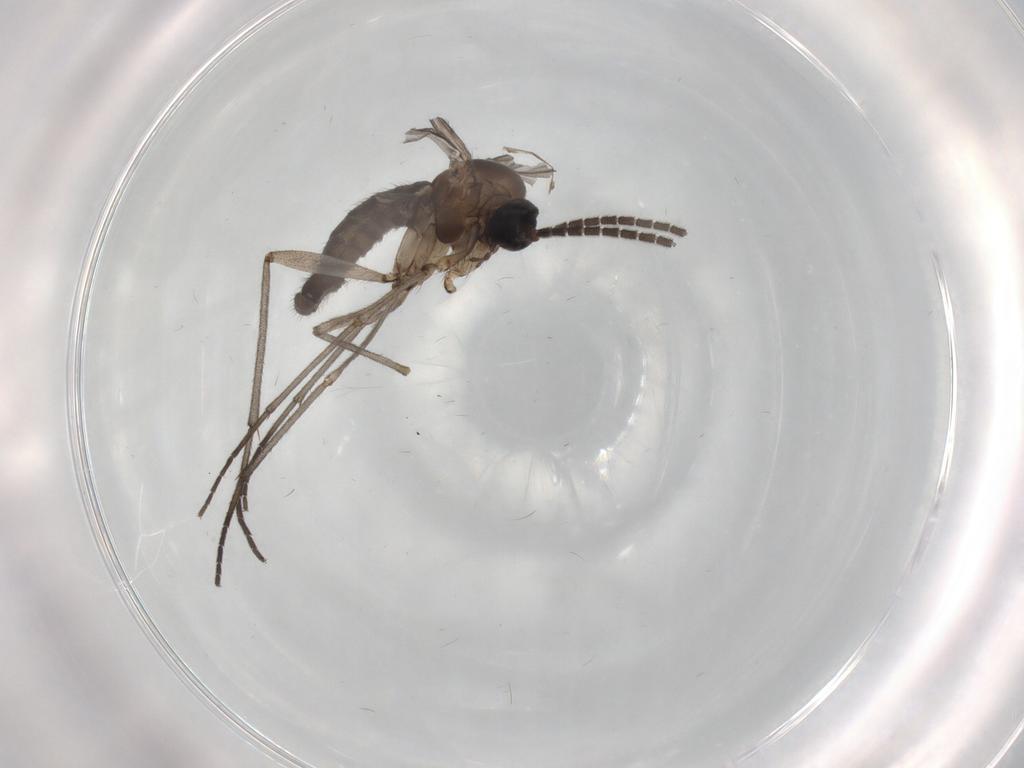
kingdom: Animalia
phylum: Arthropoda
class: Insecta
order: Diptera
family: Sciaridae
